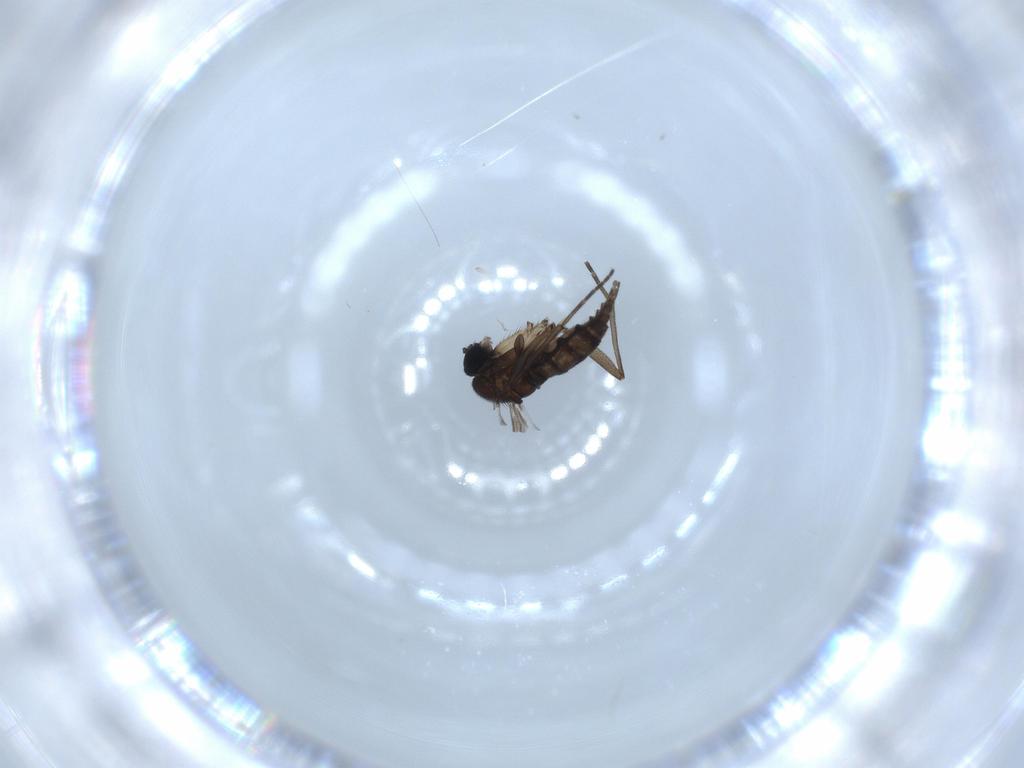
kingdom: Animalia
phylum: Arthropoda
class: Insecta
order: Diptera
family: Sciaridae
